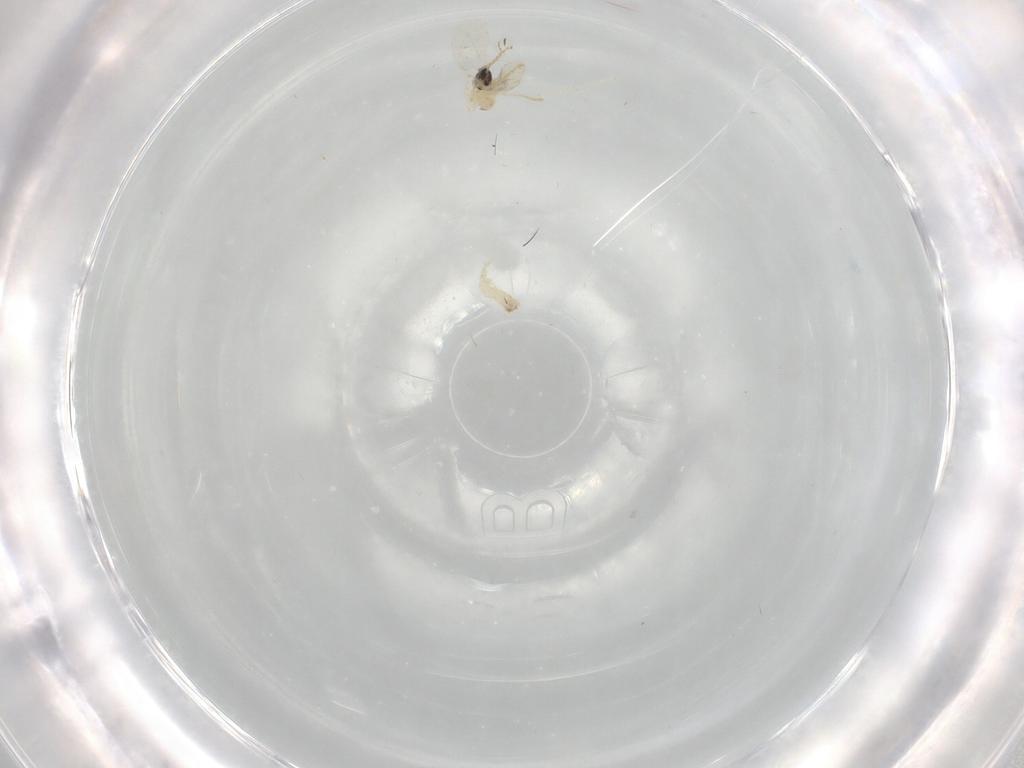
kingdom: Animalia
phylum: Arthropoda
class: Insecta
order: Diptera
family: Cecidomyiidae
